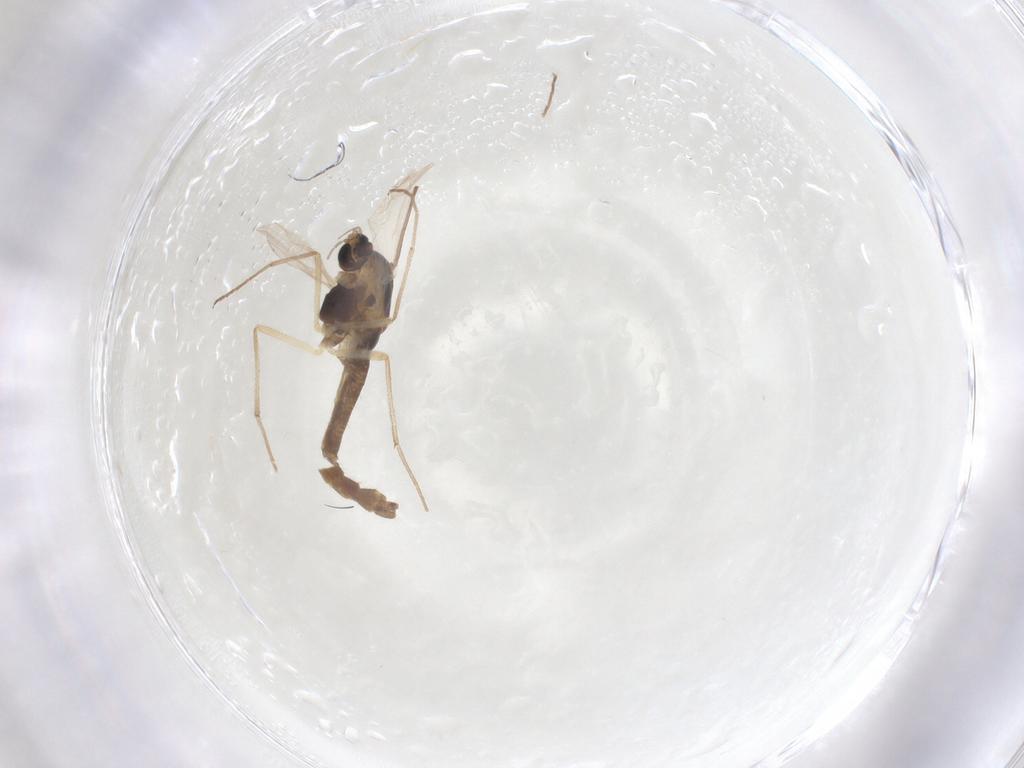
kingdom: Animalia
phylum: Arthropoda
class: Insecta
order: Diptera
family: Chironomidae
